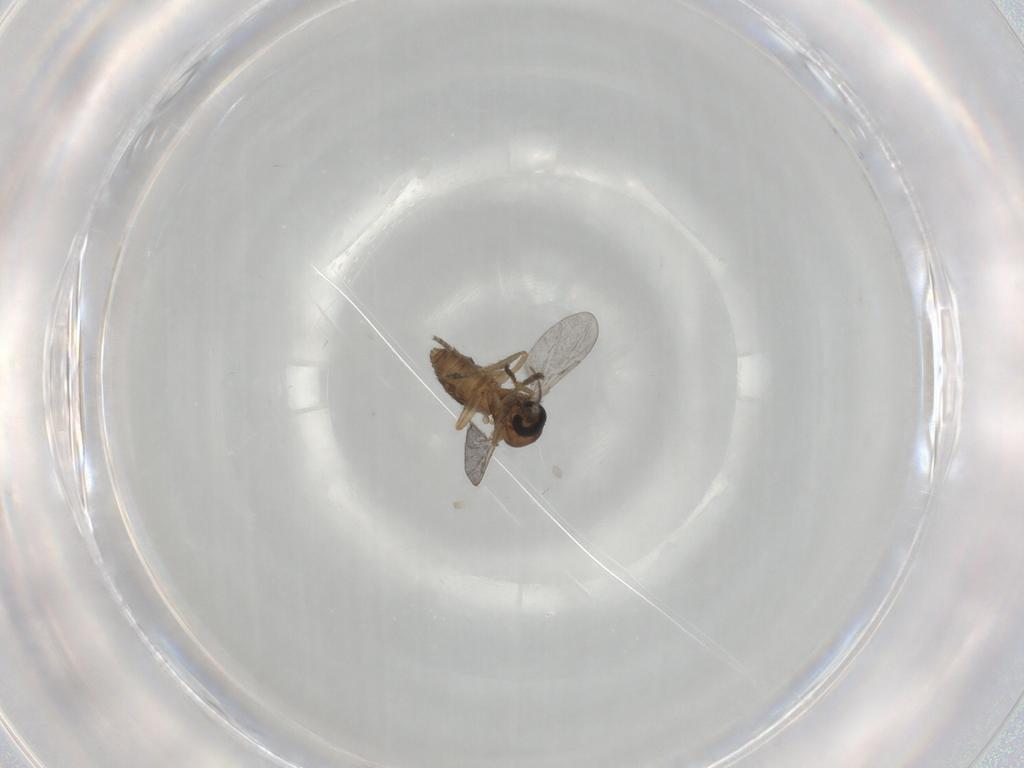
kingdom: Animalia
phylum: Arthropoda
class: Insecta
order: Diptera
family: Ceratopogonidae
